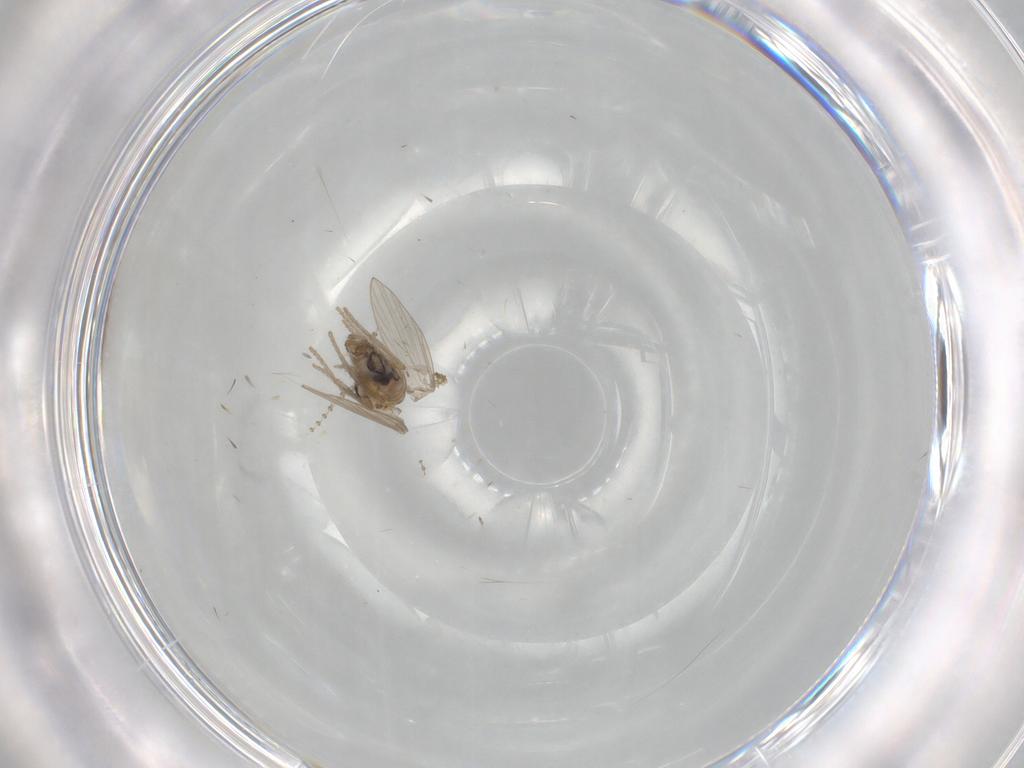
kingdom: Animalia
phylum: Arthropoda
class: Insecta
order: Diptera
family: Psychodidae
